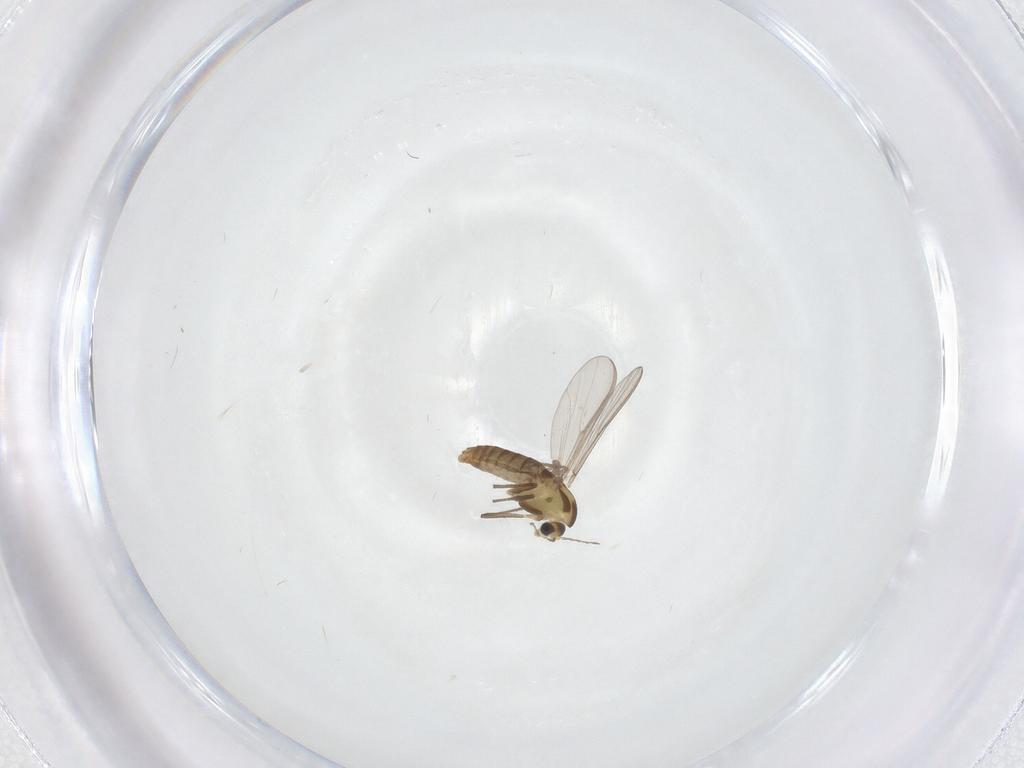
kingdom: Animalia
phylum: Arthropoda
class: Insecta
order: Diptera
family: Chironomidae
